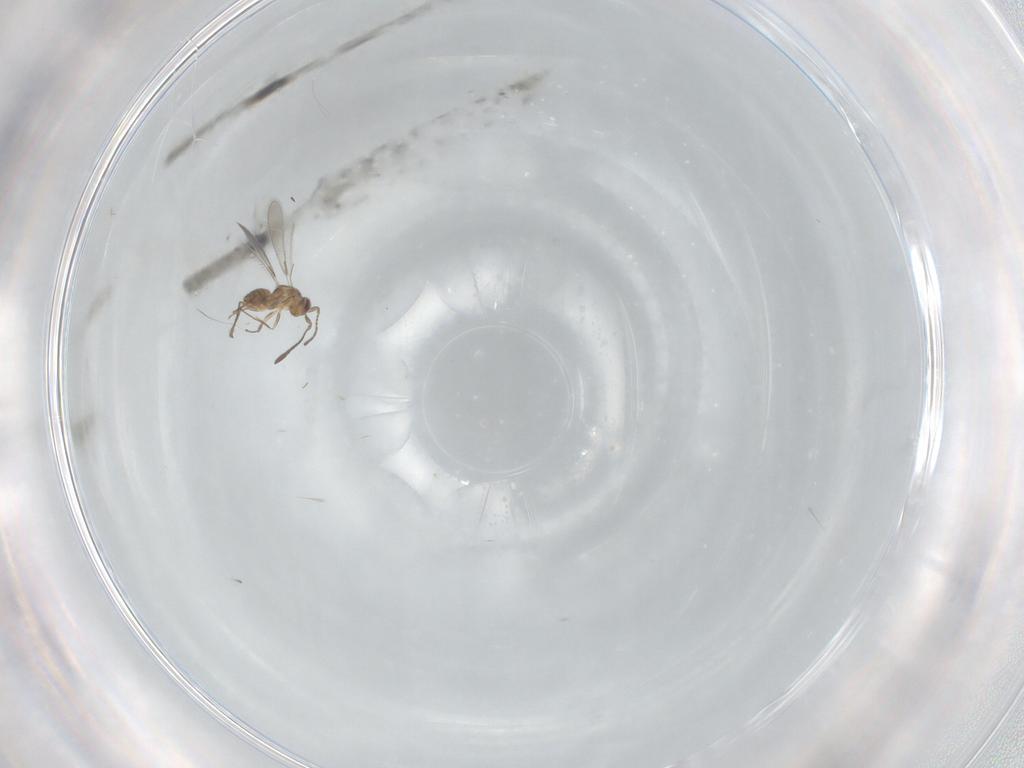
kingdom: Animalia
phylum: Arthropoda
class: Insecta
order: Hymenoptera
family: Mymaridae
